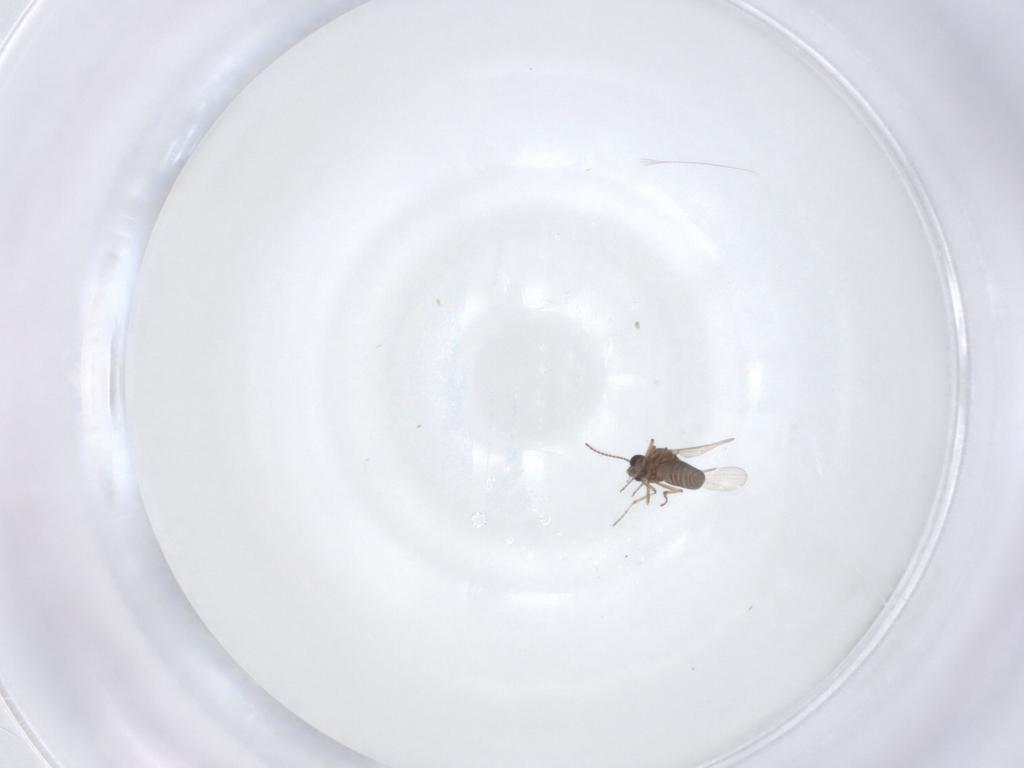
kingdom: Animalia
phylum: Arthropoda
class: Insecta
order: Diptera
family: Ceratopogonidae
